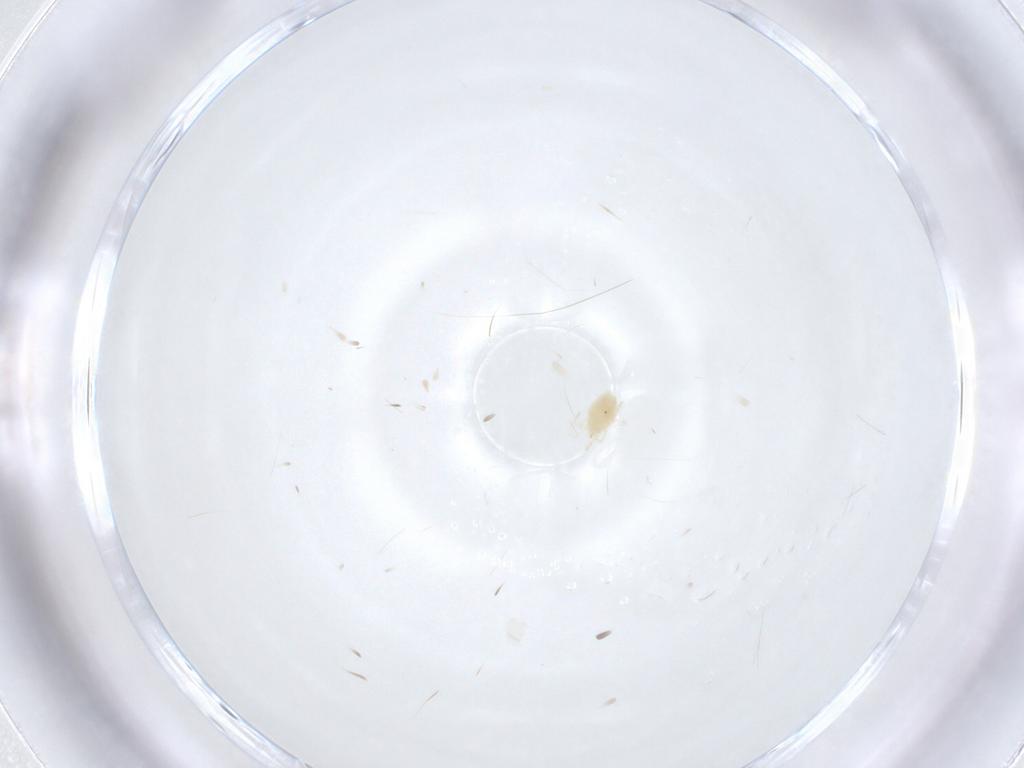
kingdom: Animalia
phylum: Arthropoda
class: Arachnida
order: Trombidiformes
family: Tetranychidae
